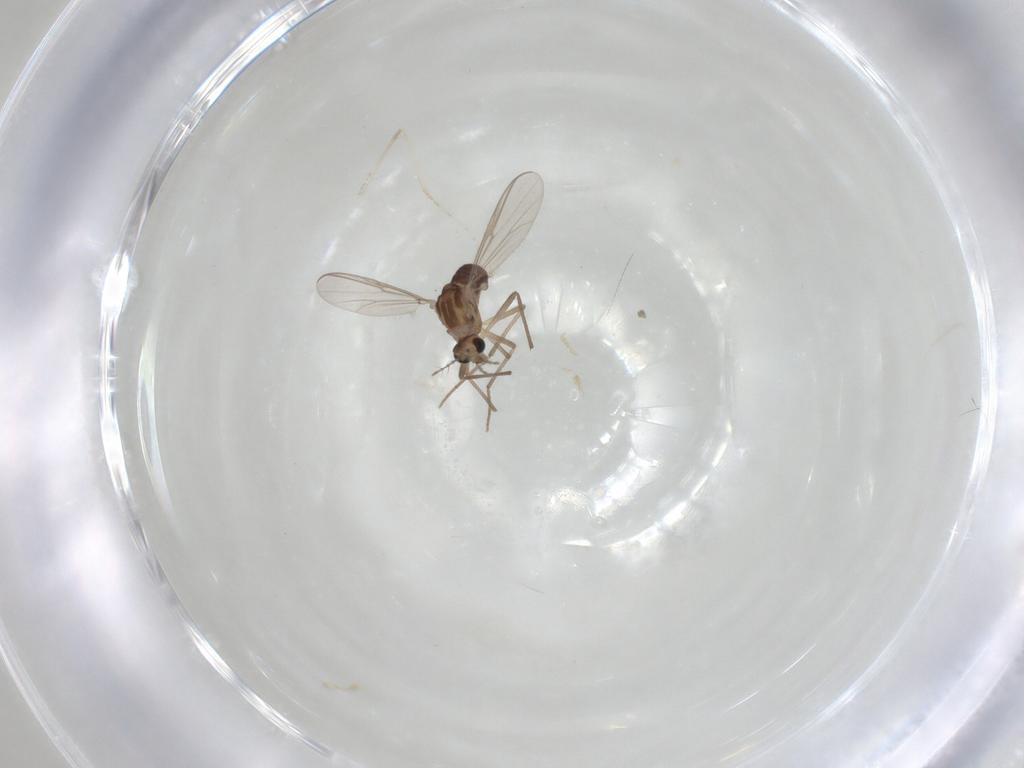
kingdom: Animalia
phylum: Arthropoda
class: Insecta
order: Diptera
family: Cecidomyiidae
